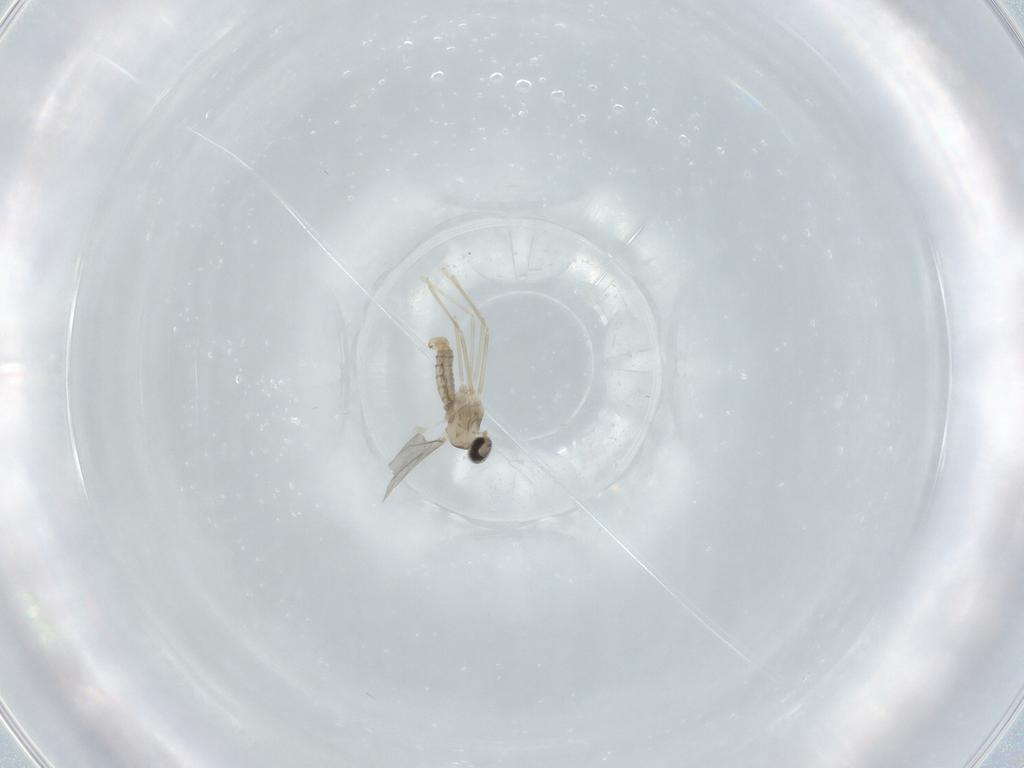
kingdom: Animalia
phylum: Arthropoda
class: Insecta
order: Diptera
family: Cecidomyiidae
